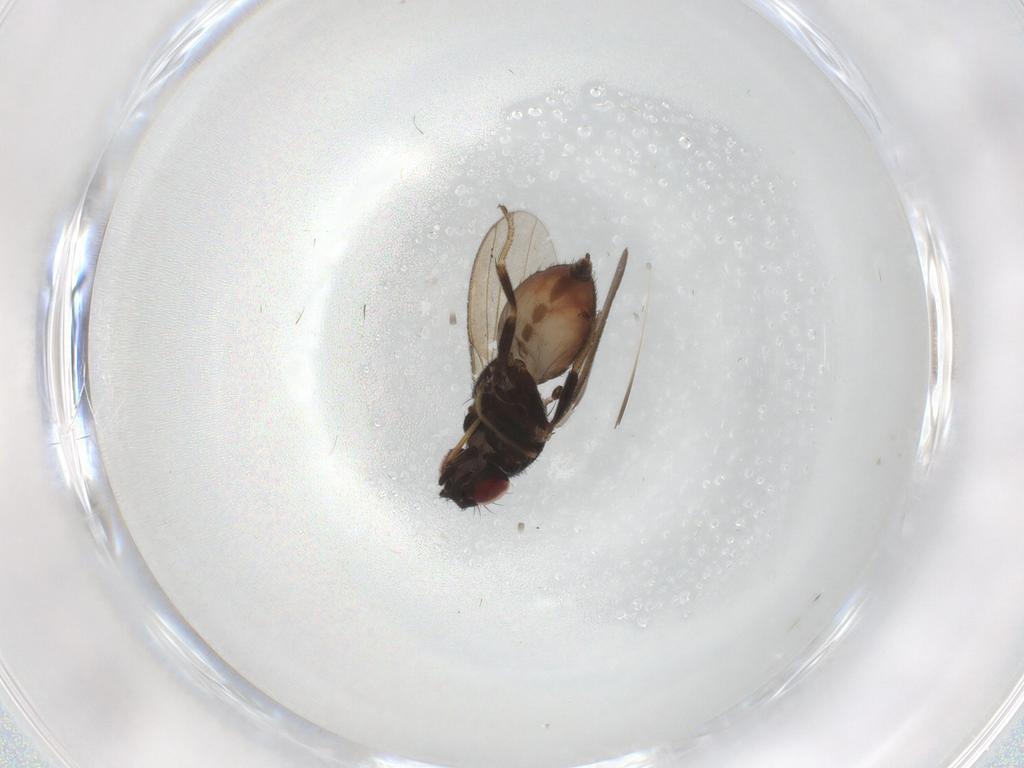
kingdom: Animalia
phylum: Arthropoda
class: Insecta
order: Diptera
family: Milichiidae
